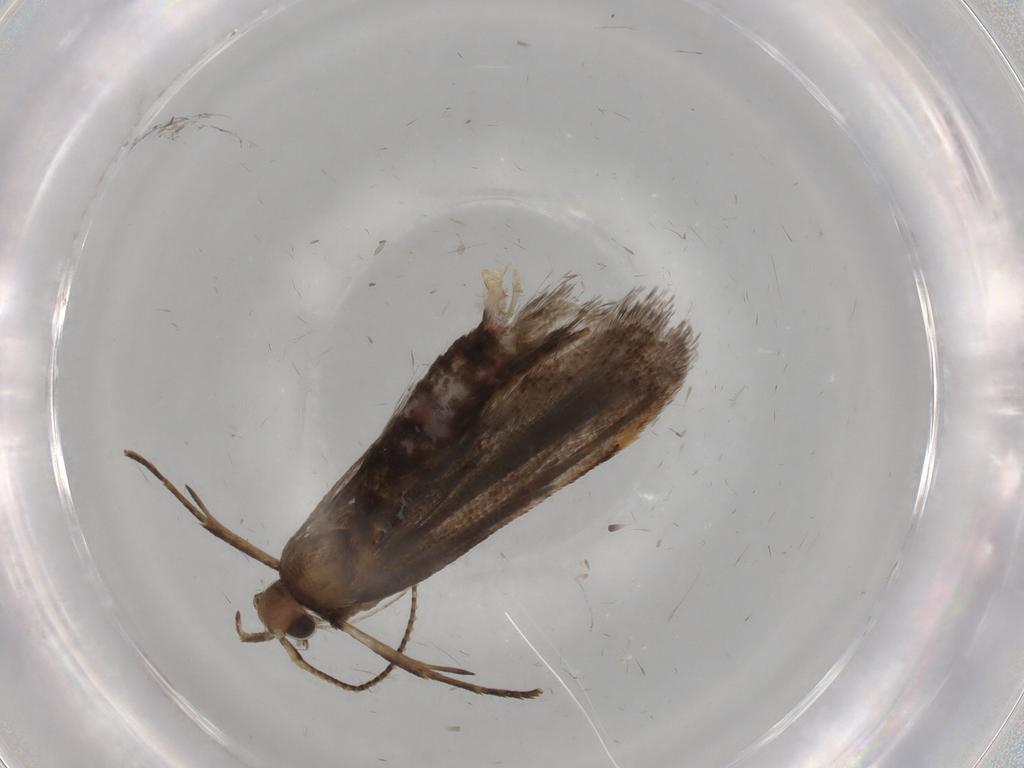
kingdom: Animalia
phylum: Arthropoda
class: Insecta
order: Lepidoptera
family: Gelechiidae
